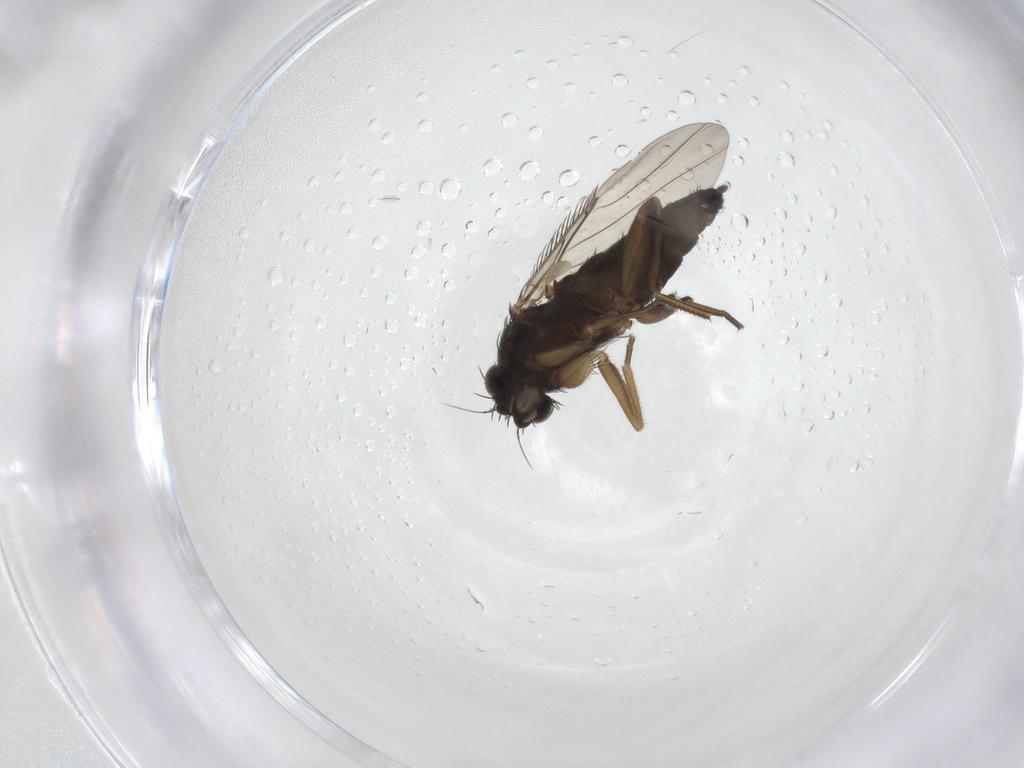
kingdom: Animalia
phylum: Arthropoda
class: Insecta
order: Diptera
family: Phoridae
